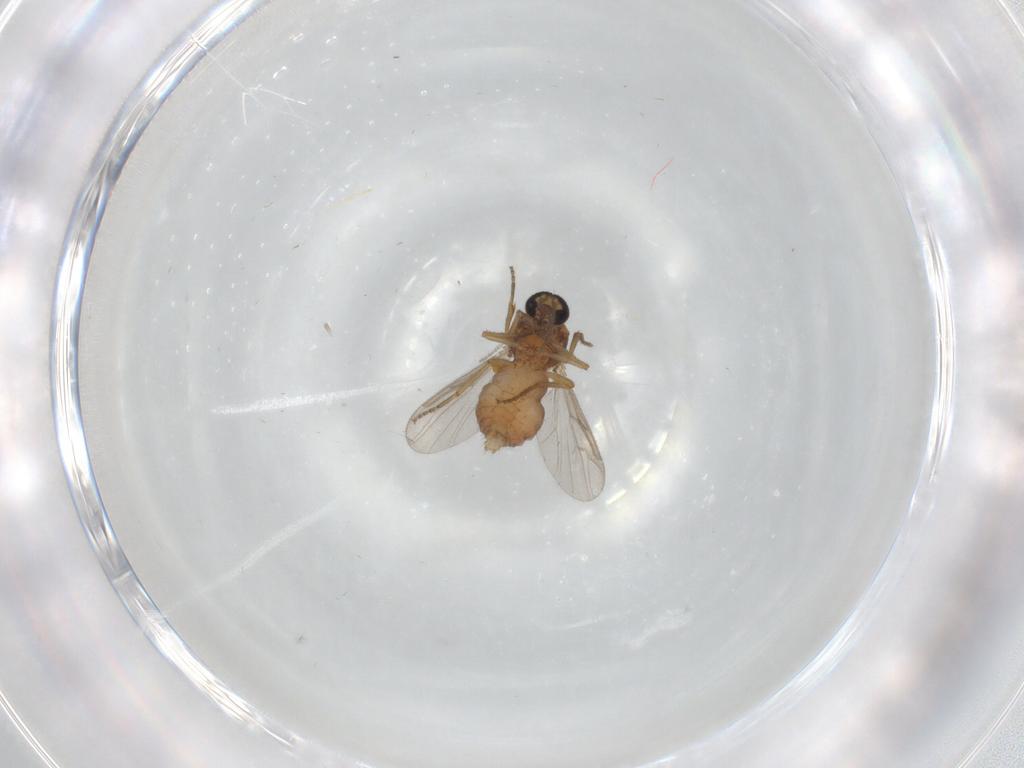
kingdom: Animalia
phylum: Arthropoda
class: Insecta
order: Diptera
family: Ceratopogonidae
